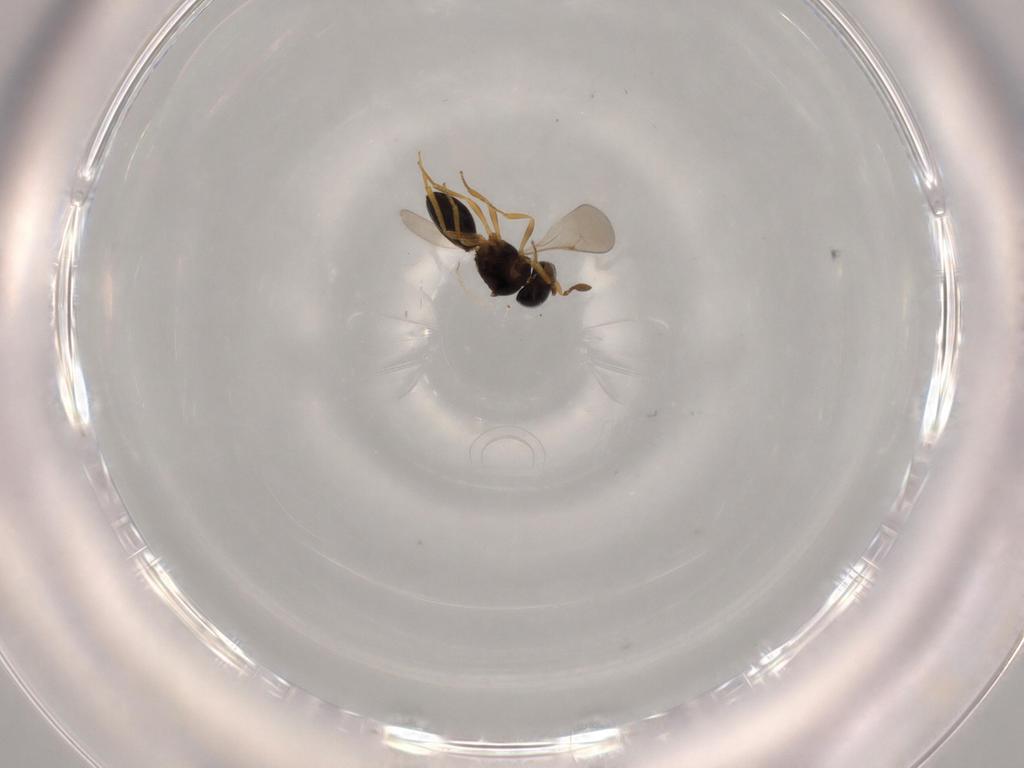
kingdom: Animalia
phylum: Arthropoda
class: Insecta
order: Hymenoptera
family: Scelionidae
